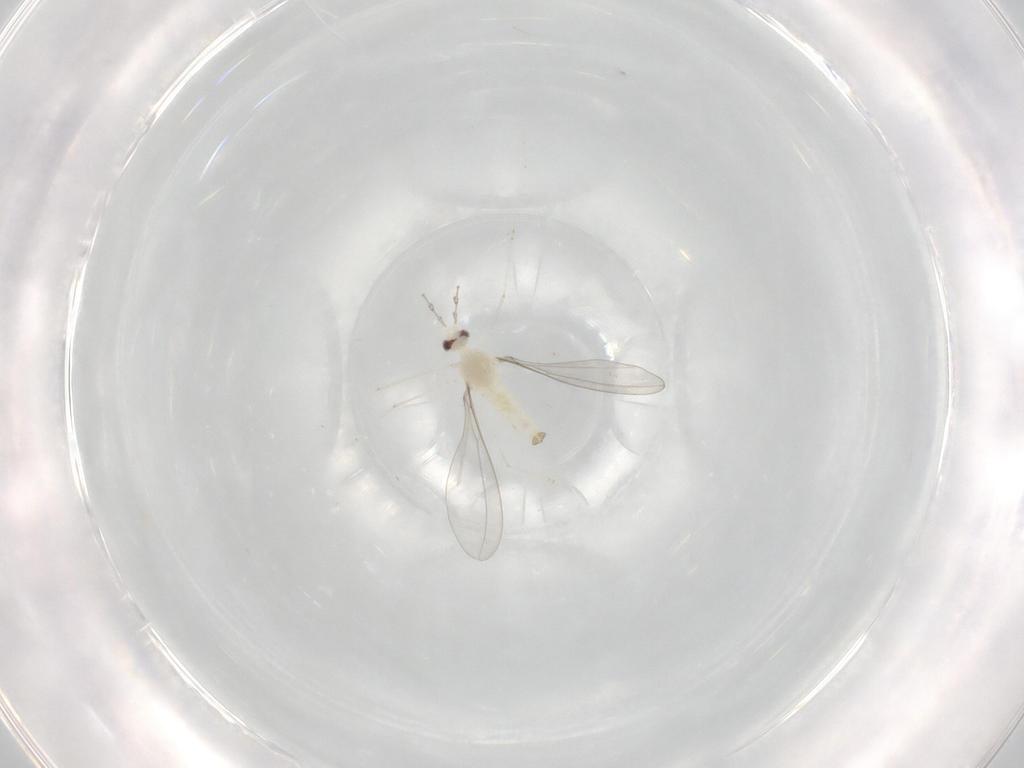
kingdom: Animalia
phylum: Arthropoda
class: Insecta
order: Diptera
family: Cecidomyiidae
